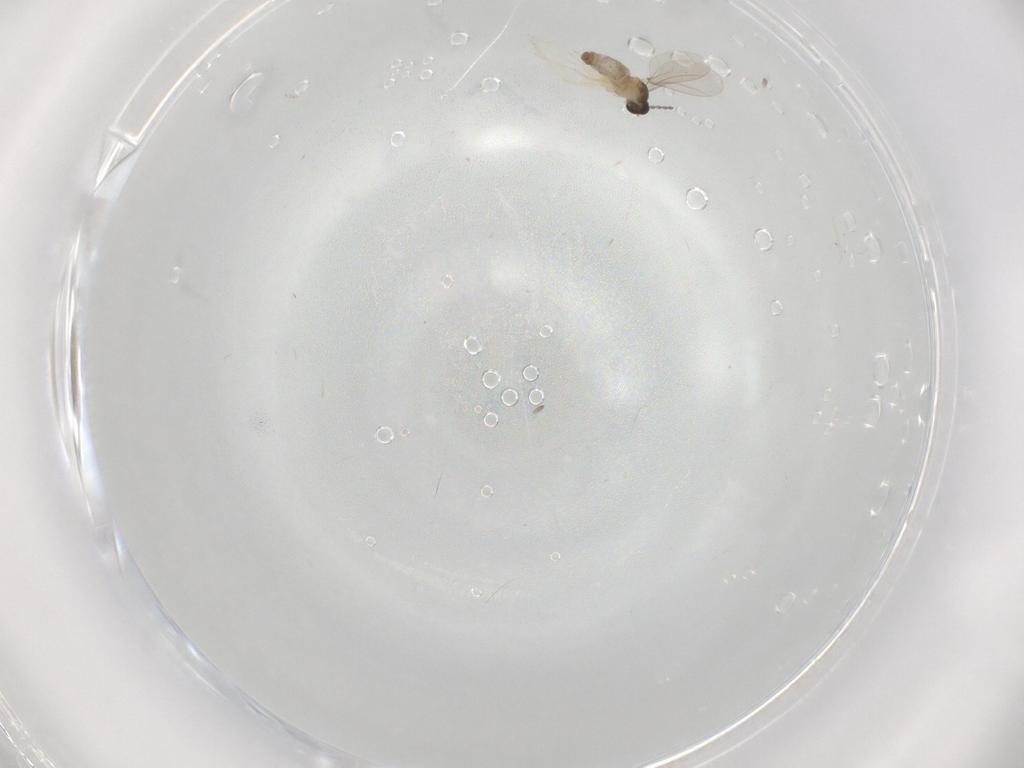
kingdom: Animalia
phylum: Arthropoda
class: Insecta
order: Diptera
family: Cecidomyiidae
